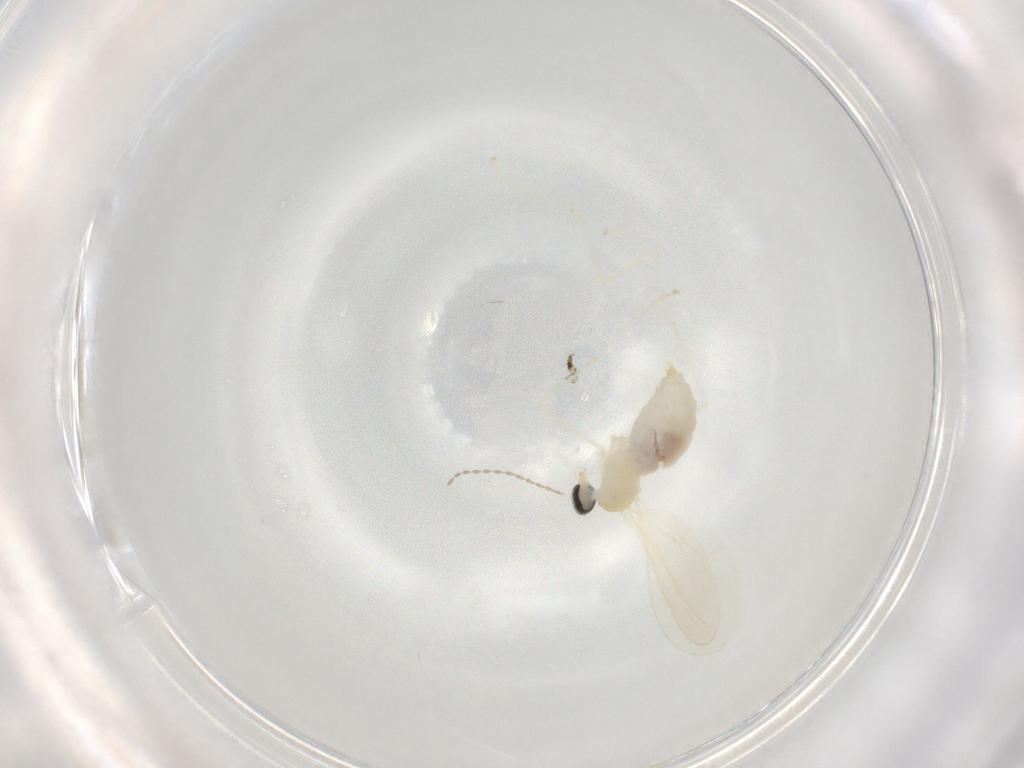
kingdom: Animalia
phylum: Arthropoda
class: Insecta
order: Diptera
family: Cecidomyiidae
